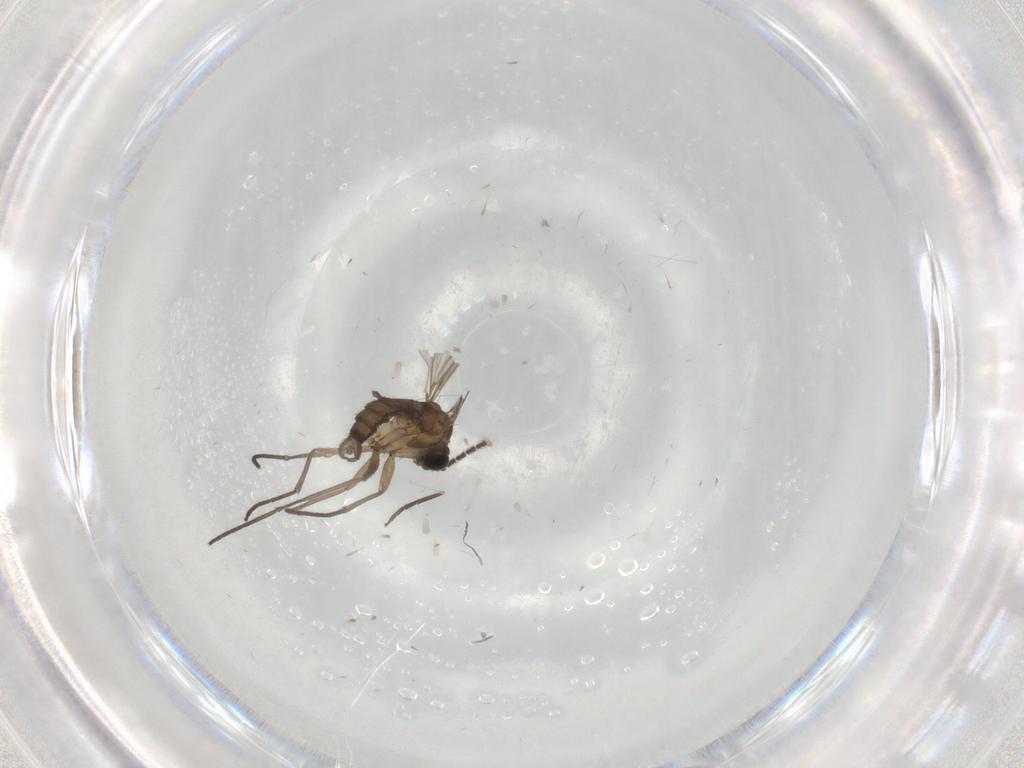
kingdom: Animalia
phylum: Arthropoda
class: Insecta
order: Diptera
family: Sciaridae
